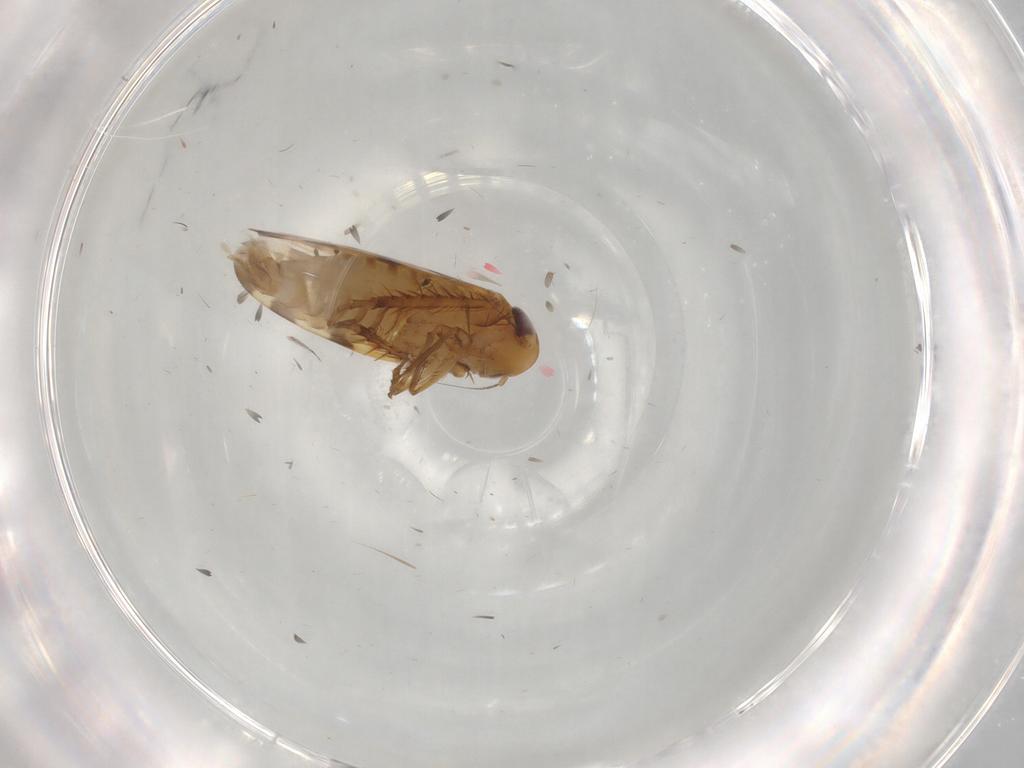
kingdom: Animalia
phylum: Arthropoda
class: Insecta
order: Hemiptera
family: Cicadellidae
